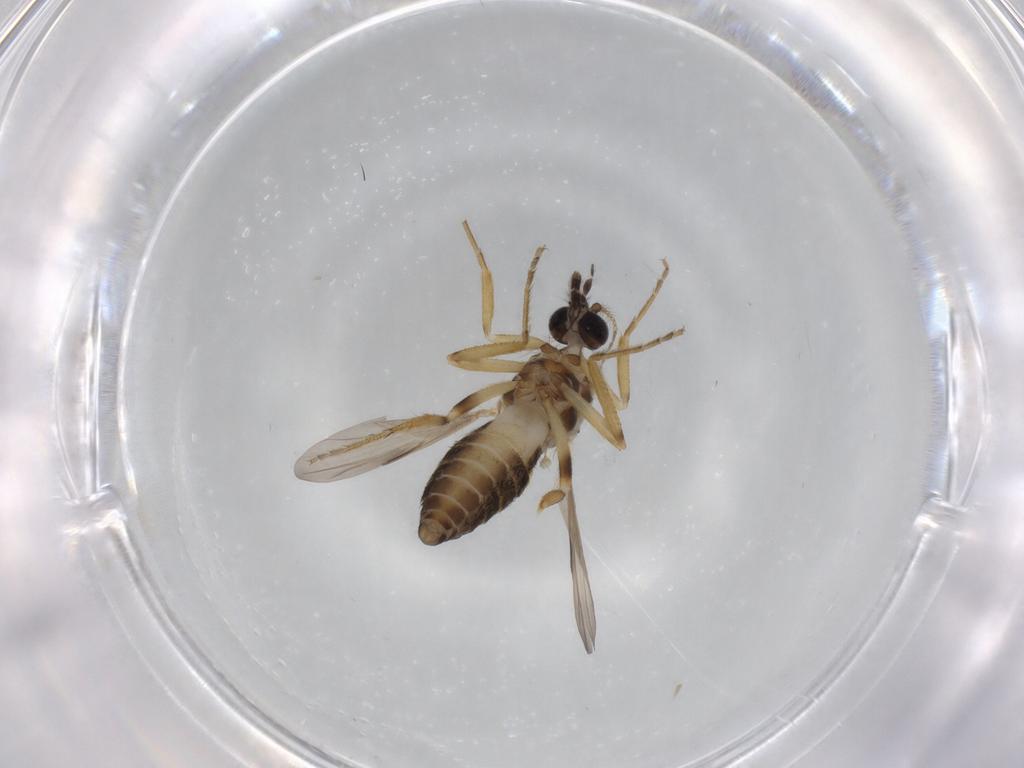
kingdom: Animalia
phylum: Arthropoda
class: Insecta
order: Diptera
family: Ceratopogonidae
